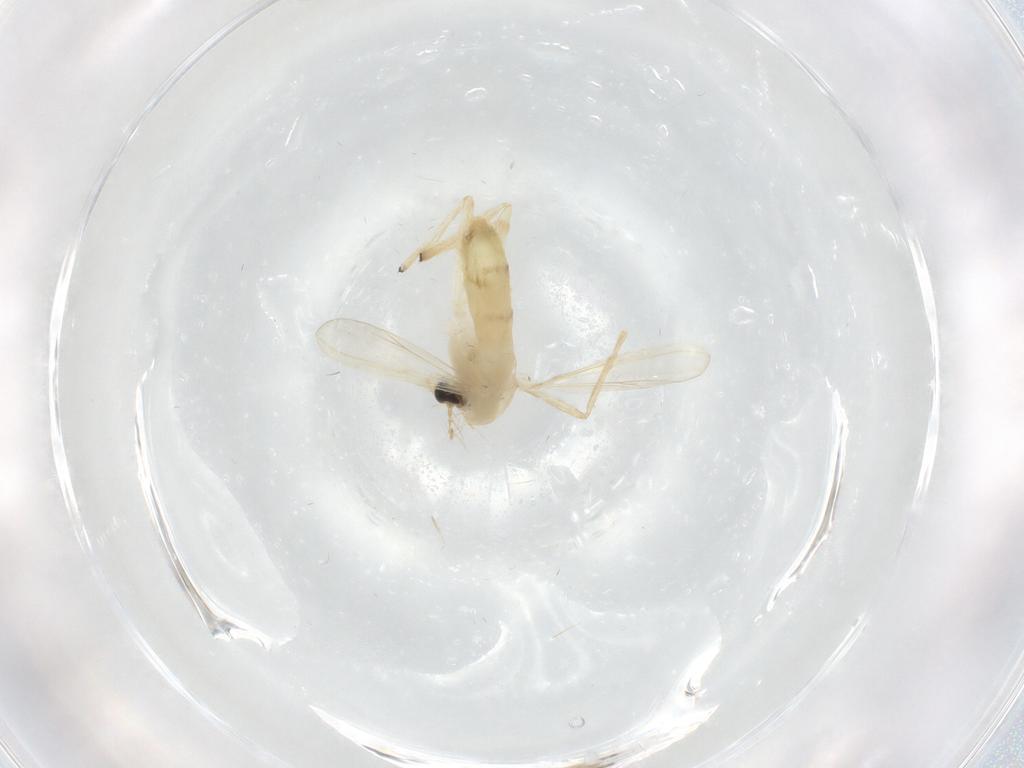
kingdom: Animalia
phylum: Arthropoda
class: Insecta
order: Diptera
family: Chironomidae
